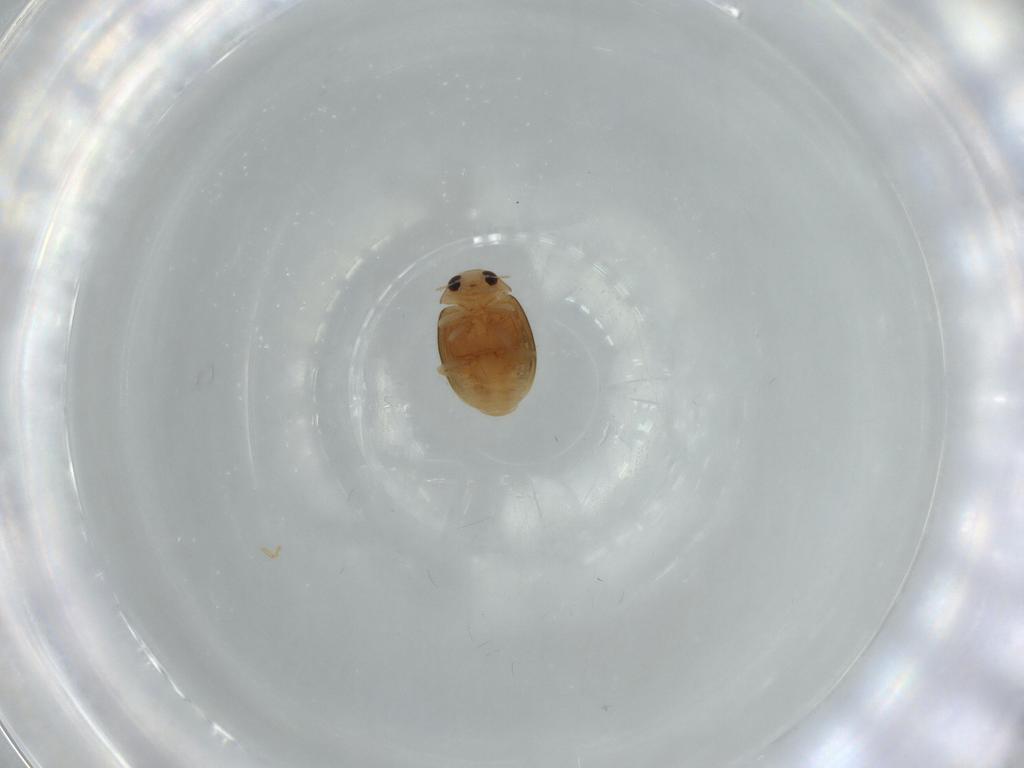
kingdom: Animalia
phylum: Arthropoda
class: Insecta
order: Coleoptera
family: Coccinellidae
